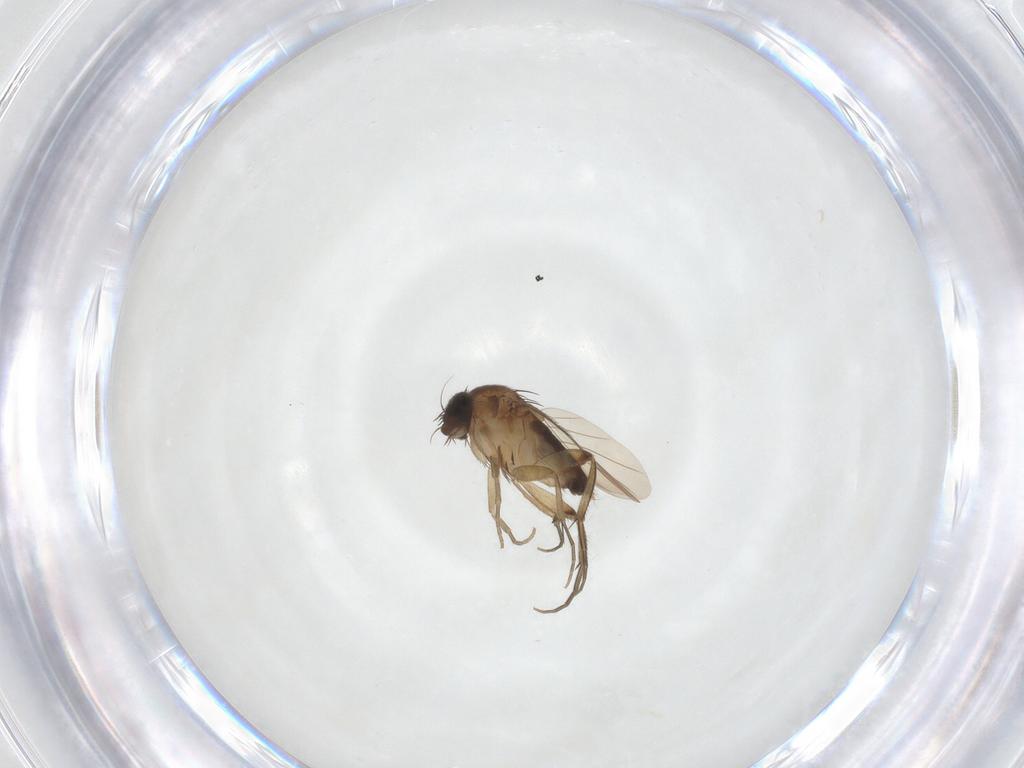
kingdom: Animalia
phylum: Arthropoda
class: Insecta
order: Diptera
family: Phoridae
